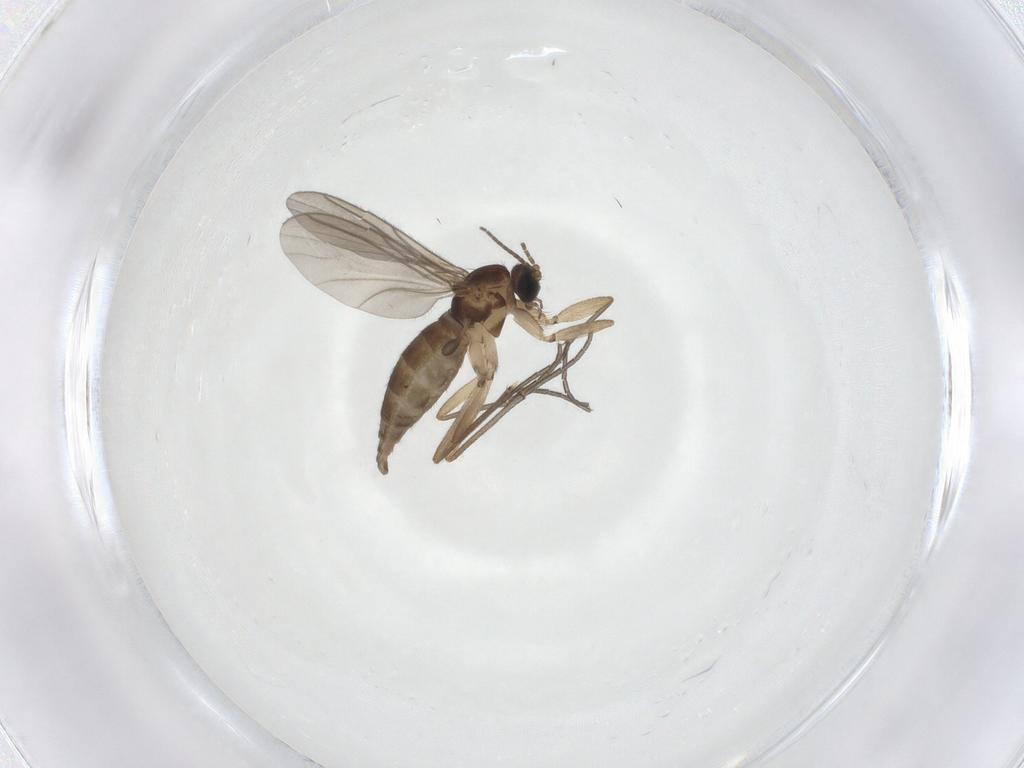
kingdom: Animalia
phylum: Arthropoda
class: Insecta
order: Diptera
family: Sciaridae
